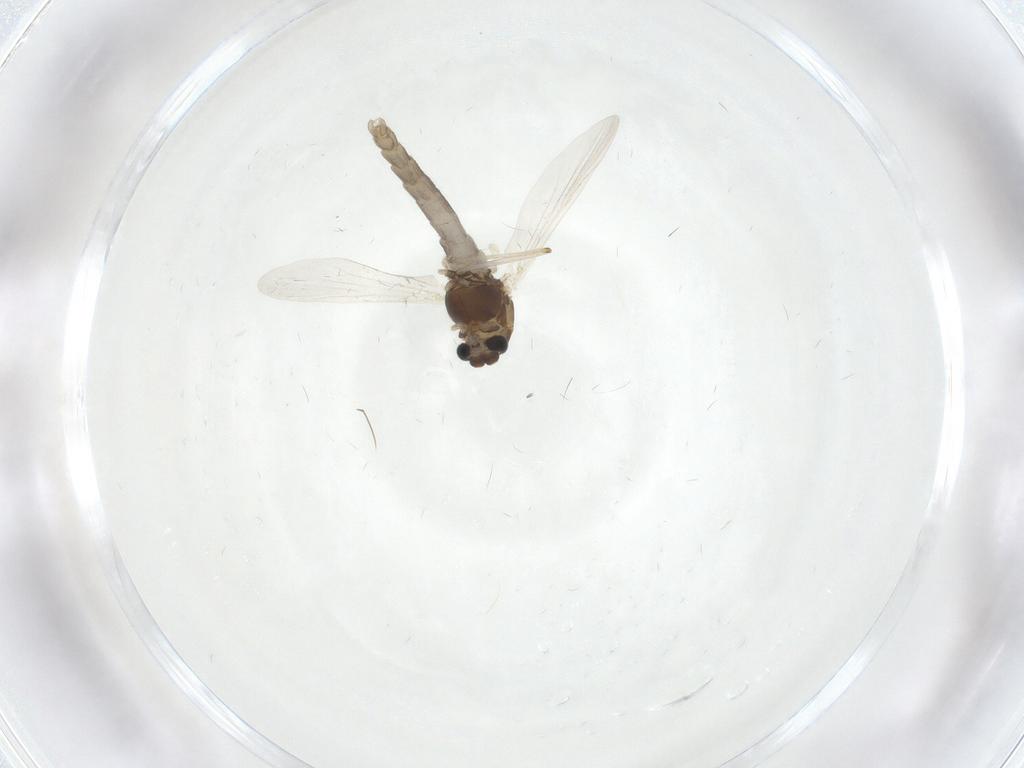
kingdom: Animalia
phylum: Arthropoda
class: Insecta
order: Diptera
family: Chironomidae
